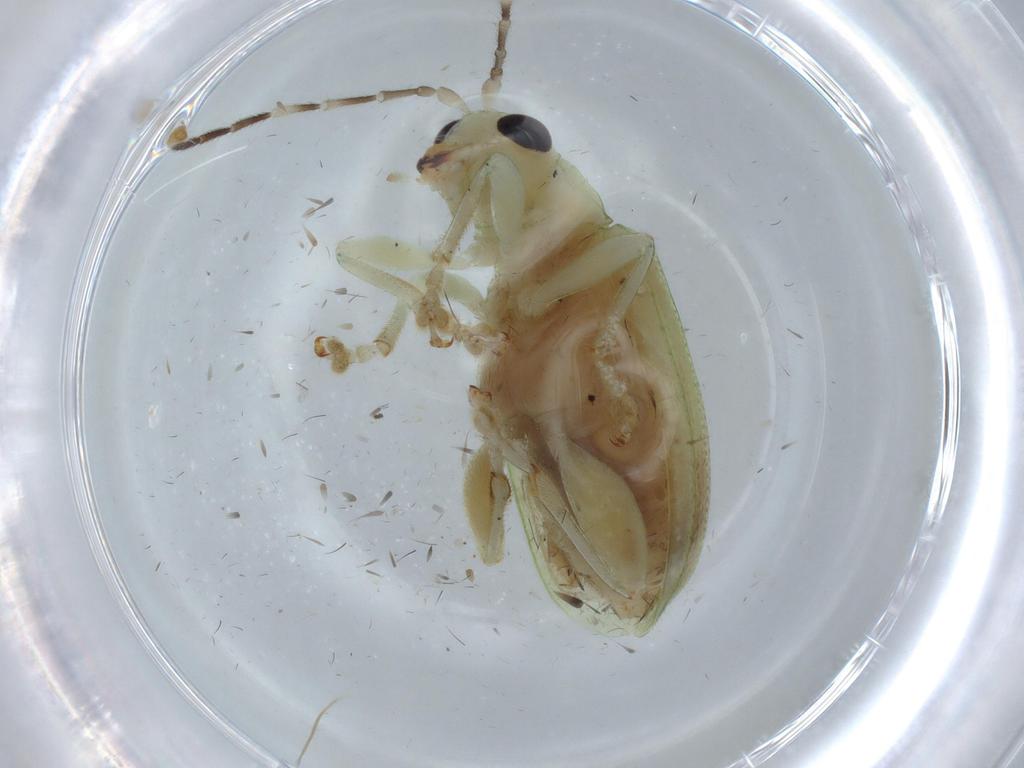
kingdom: Animalia
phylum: Arthropoda
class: Insecta
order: Coleoptera
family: Chrysomelidae
